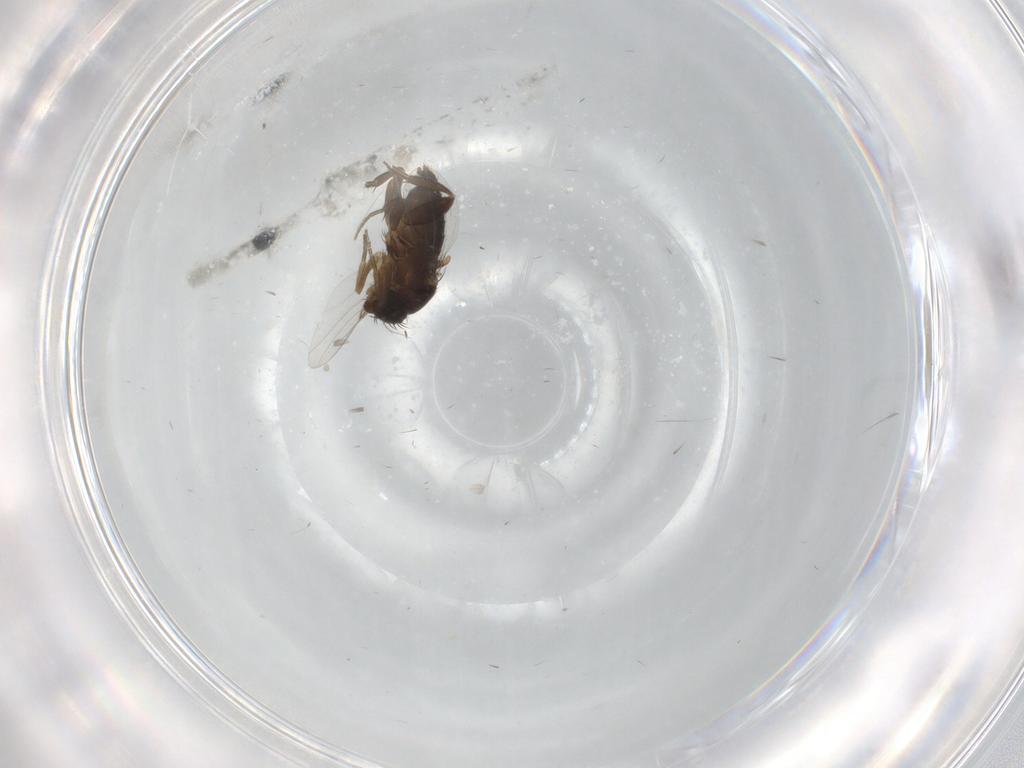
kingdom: Animalia
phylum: Arthropoda
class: Insecta
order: Diptera
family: Phoridae
